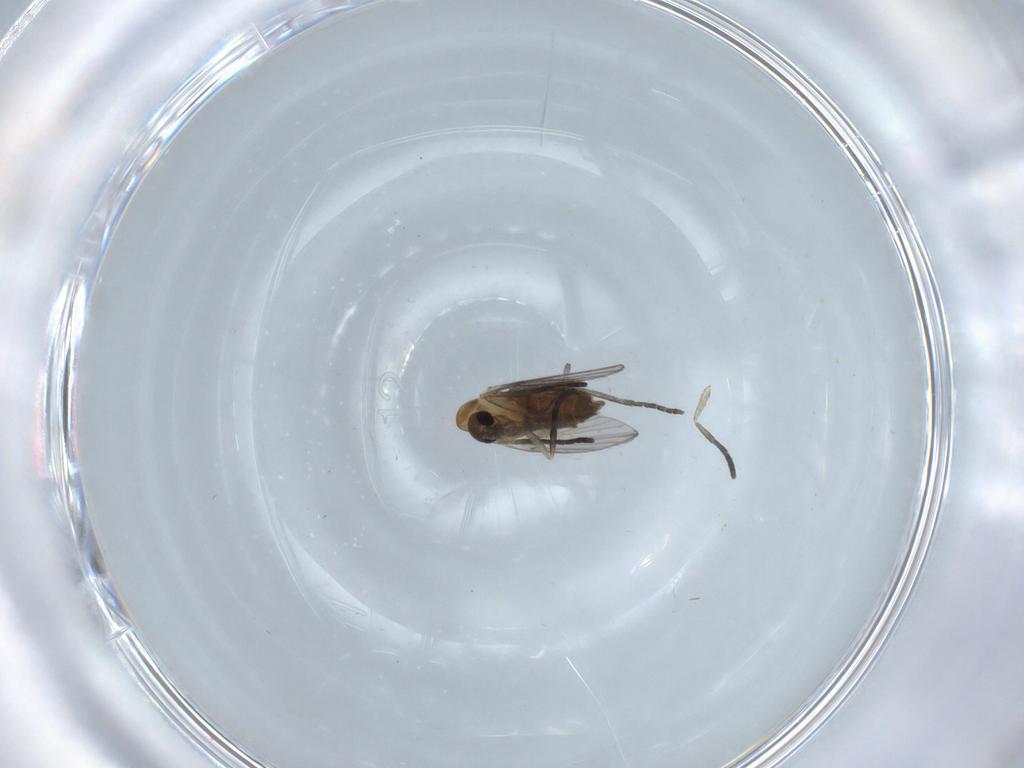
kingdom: Animalia
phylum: Arthropoda
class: Insecta
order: Diptera
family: Psychodidae
